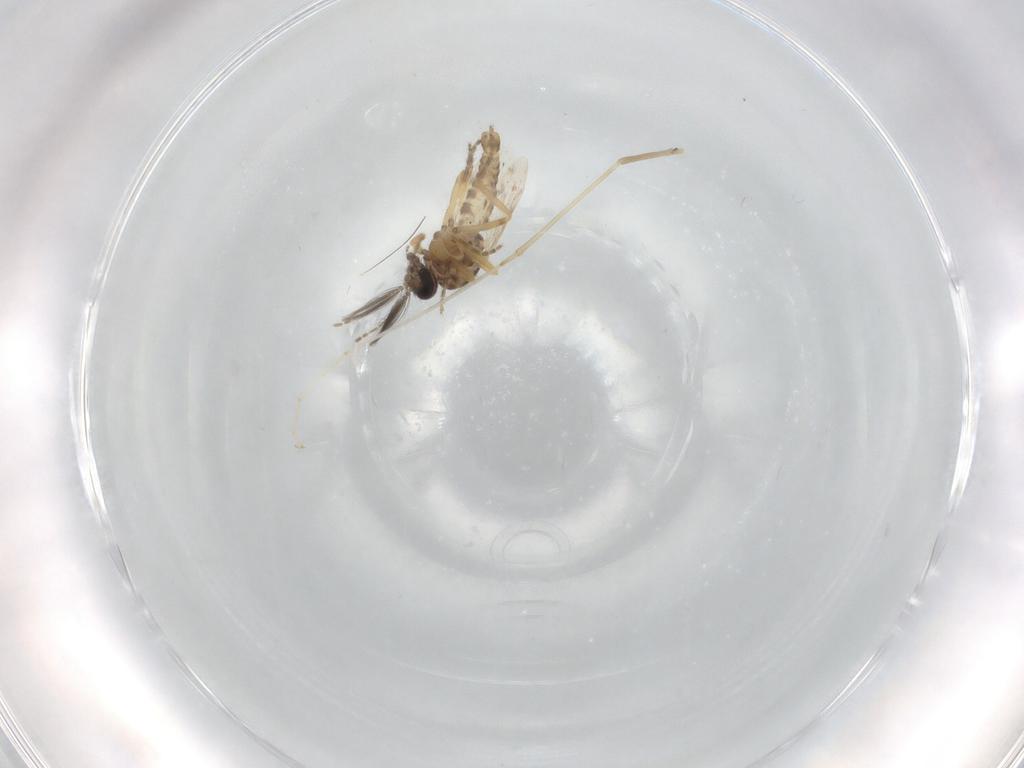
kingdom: Animalia
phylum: Arthropoda
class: Insecta
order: Diptera
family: Ceratopogonidae
